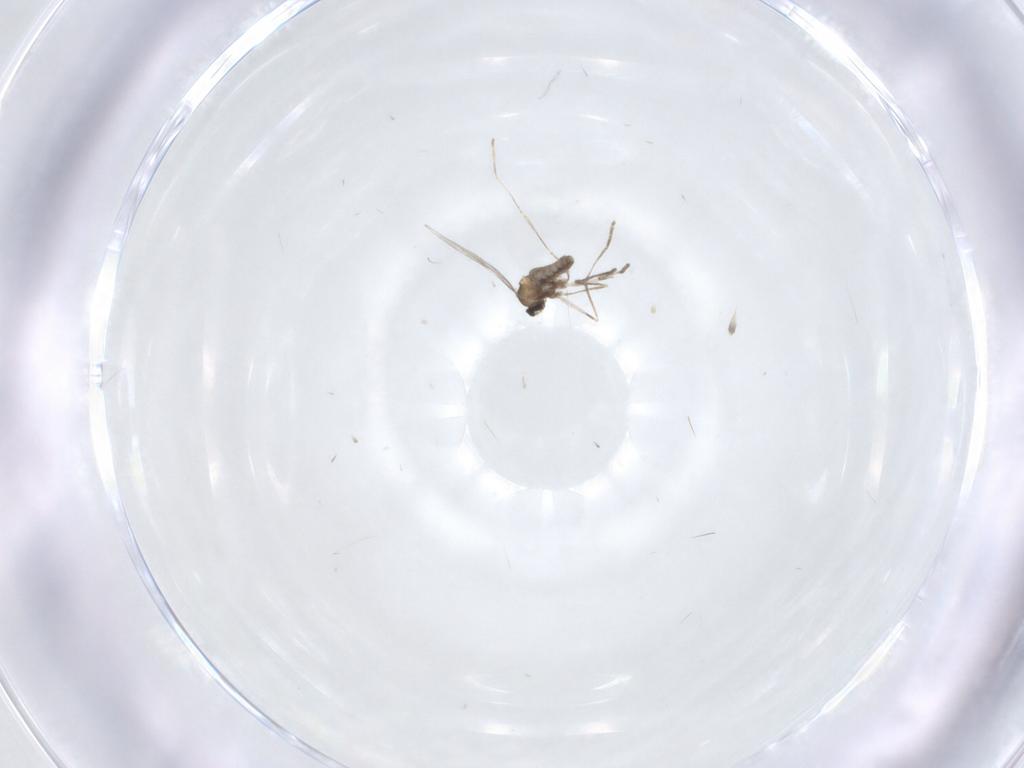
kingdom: Animalia
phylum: Arthropoda
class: Insecta
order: Diptera
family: Cecidomyiidae
